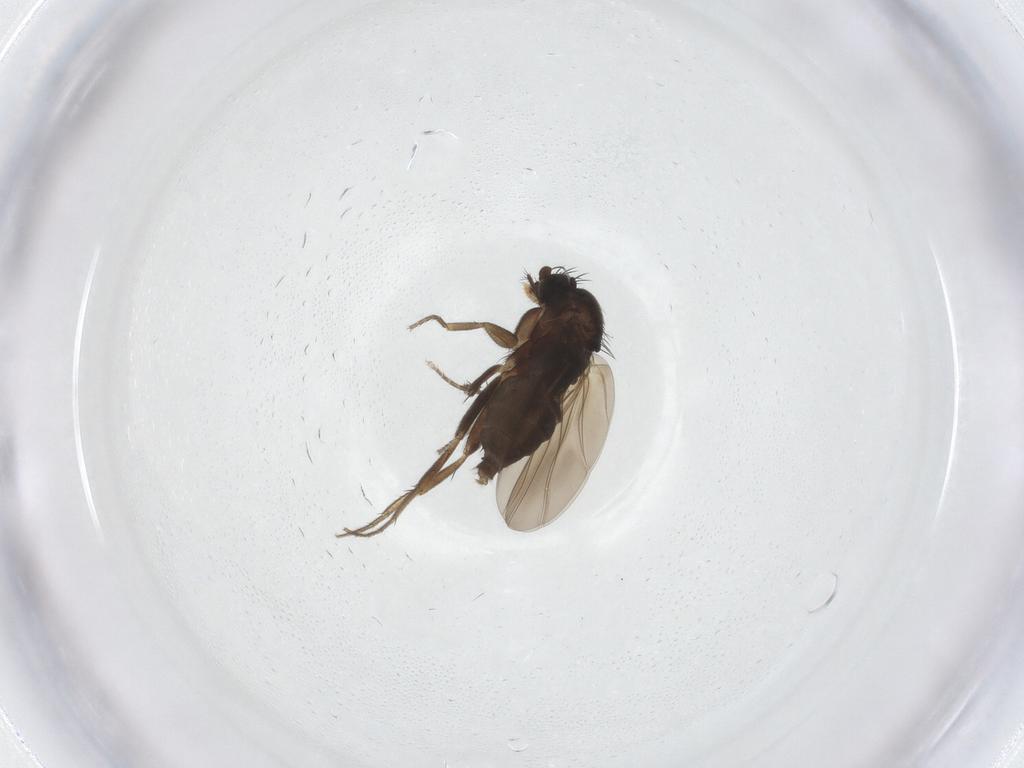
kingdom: Animalia
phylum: Arthropoda
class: Insecta
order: Diptera
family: Phoridae
